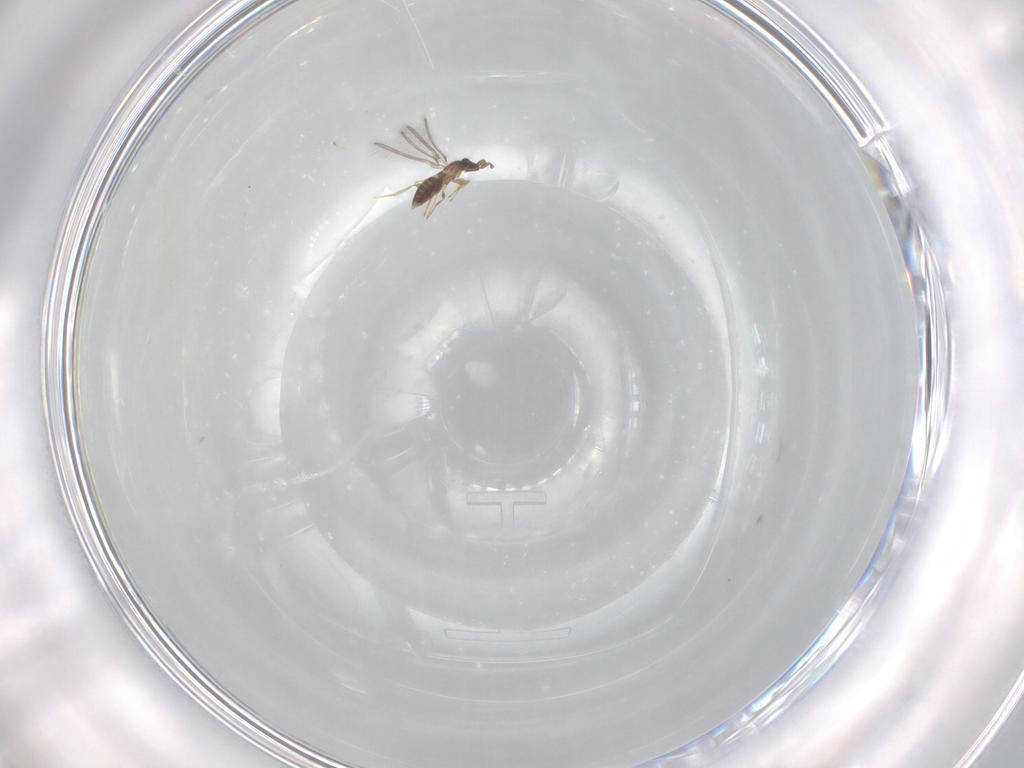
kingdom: Animalia
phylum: Arthropoda
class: Insecta
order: Hymenoptera
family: Mymaridae
